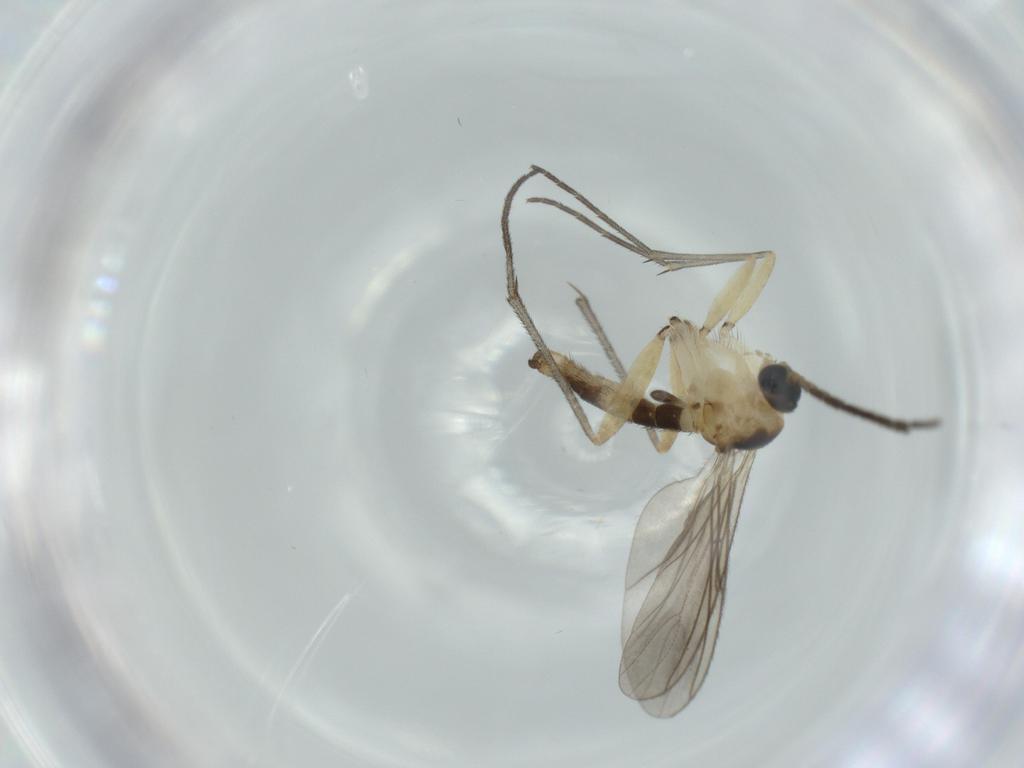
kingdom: Animalia
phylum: Arthropoda
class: Insecta
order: Diptera
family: Sciaridae
